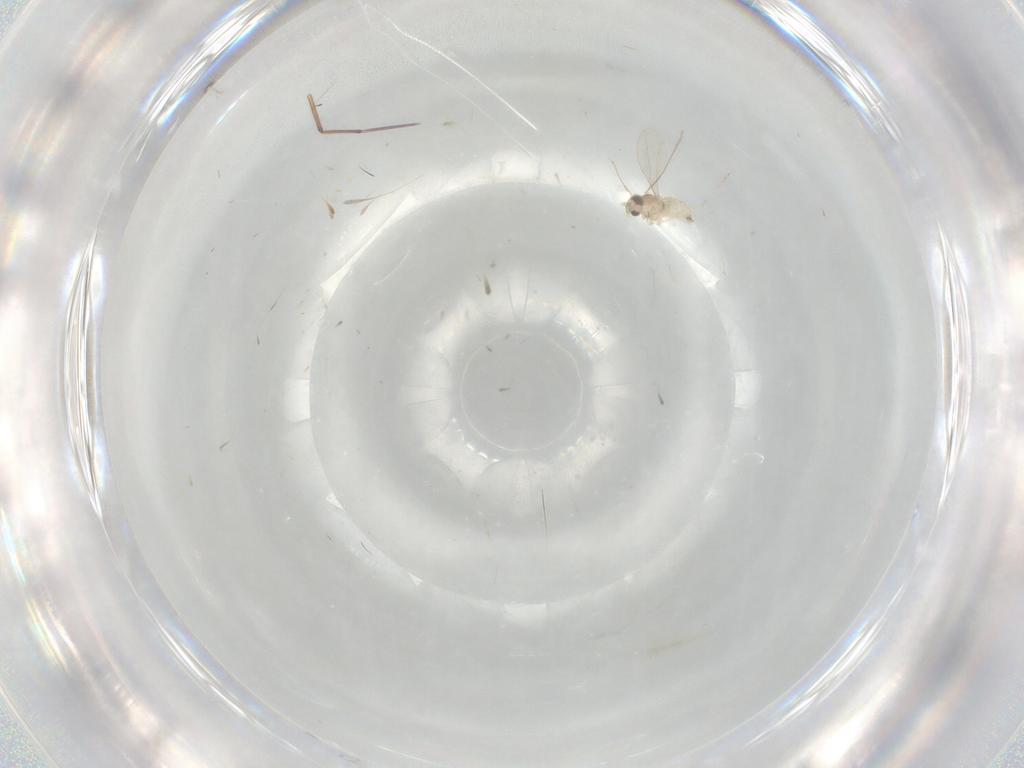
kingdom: Animalia
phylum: Arthropoda
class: Insecta
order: Diptera
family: Cecidomyiidae
